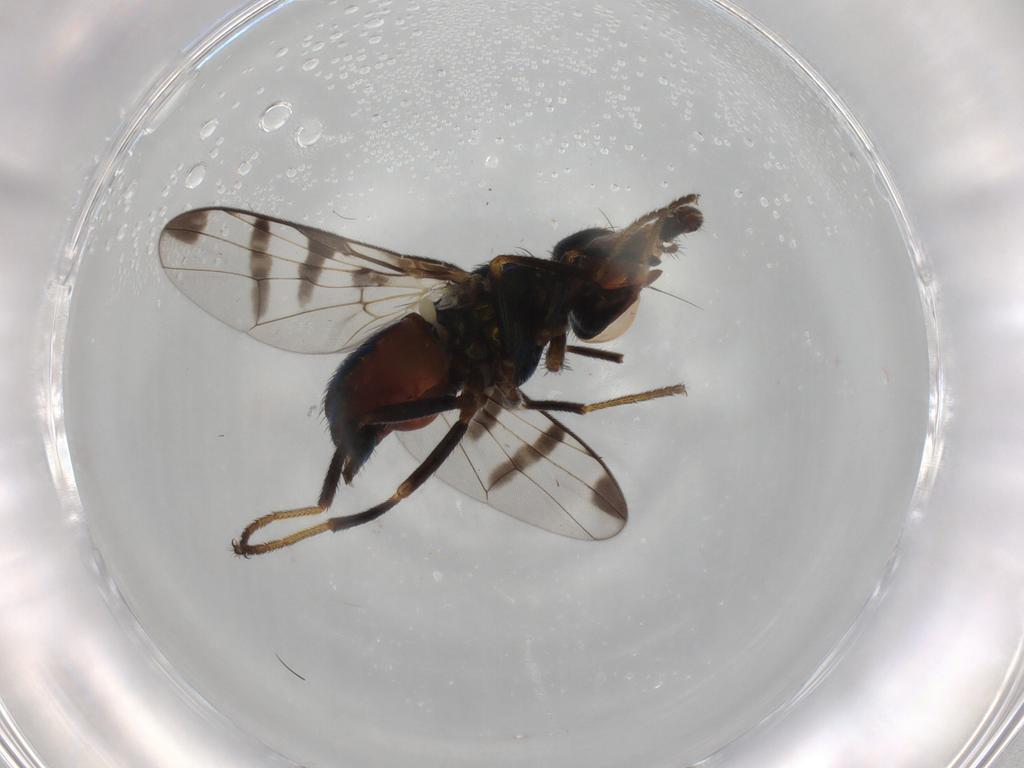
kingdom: Animalia
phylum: Arthropoda
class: Insecta
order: Diptera
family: Platystomatidae
